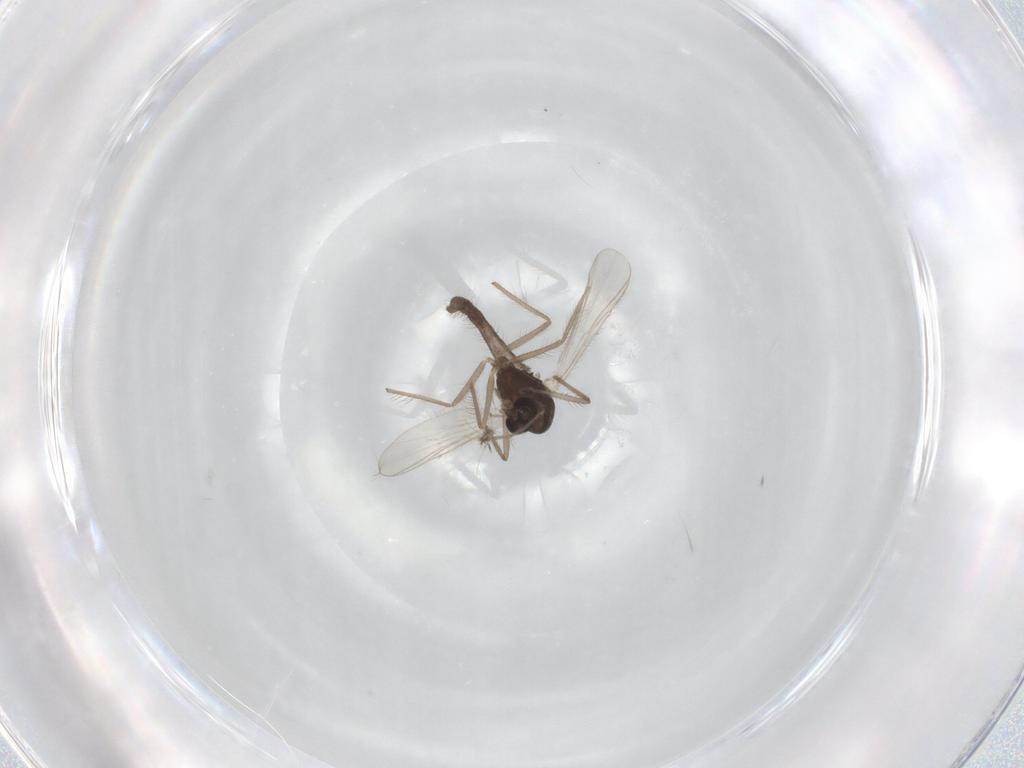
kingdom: Animalia
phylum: Arthropoda
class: Insecta
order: Diptera
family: Chironomidae
